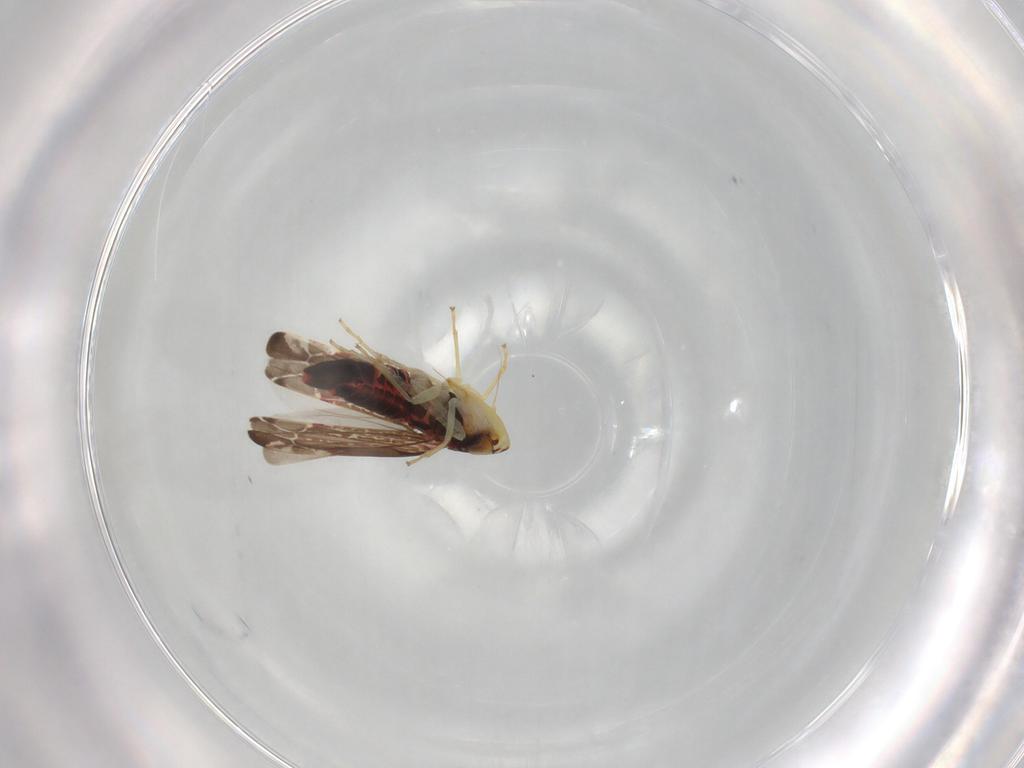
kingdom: Animalia
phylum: Arthropoda
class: Insecta
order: Hemiptera
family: Cicadellidae
